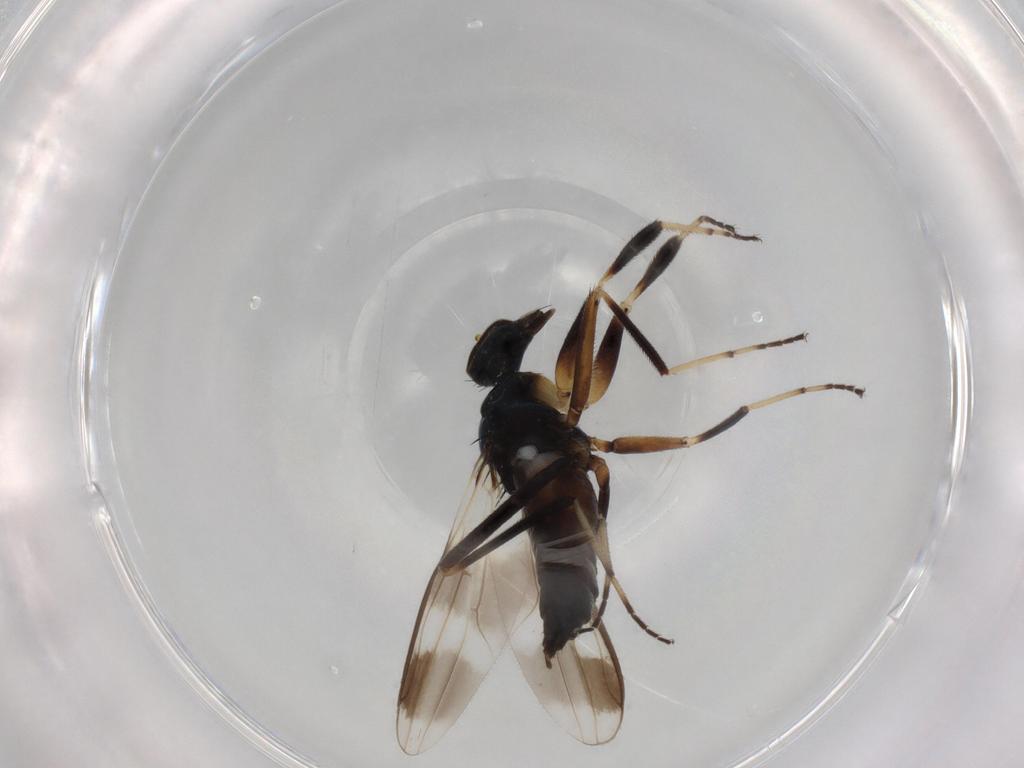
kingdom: Animalia
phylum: Arthropoda
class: Insecta
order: Diptera
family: Hybotidae
